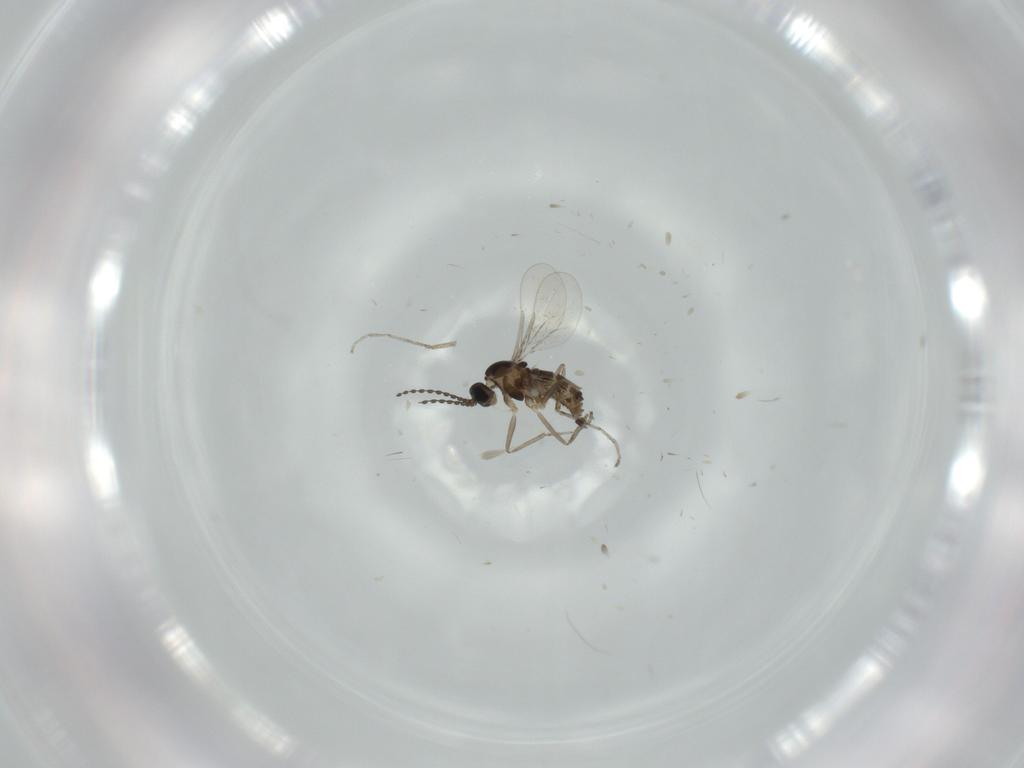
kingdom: Animalia
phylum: Arthropoda
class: Insecta
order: Diptera
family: Cecidomyiidae
